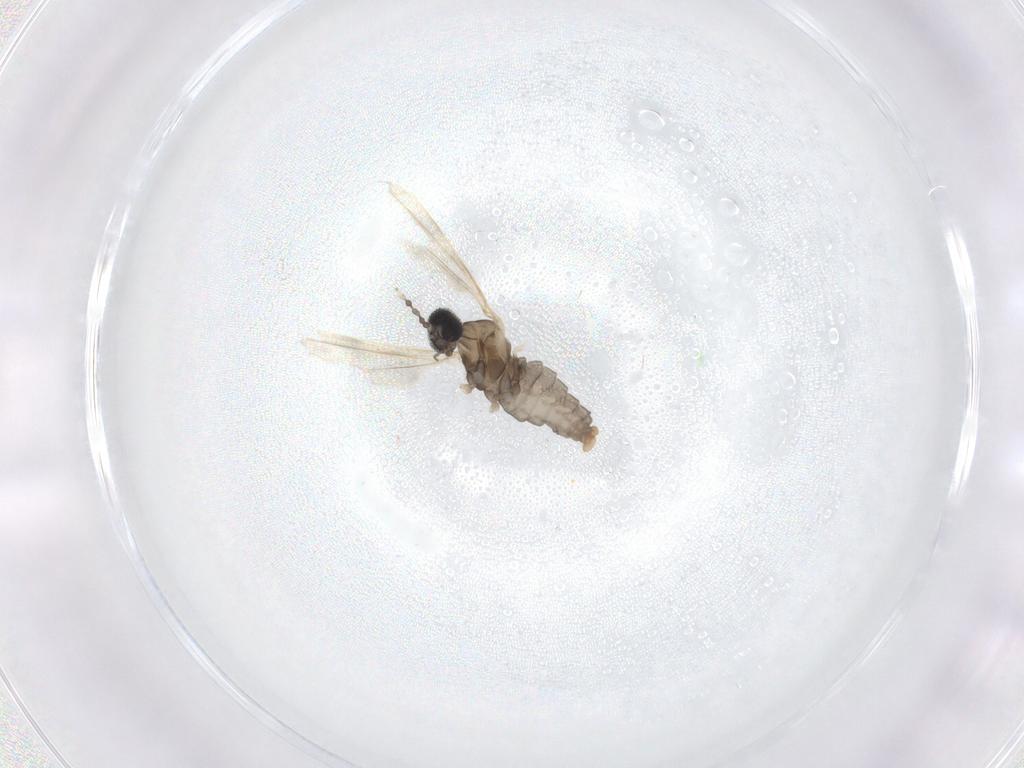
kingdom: Animalia
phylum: Arthropoda
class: Insecta
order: Diptera
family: Cecidomyiidae
